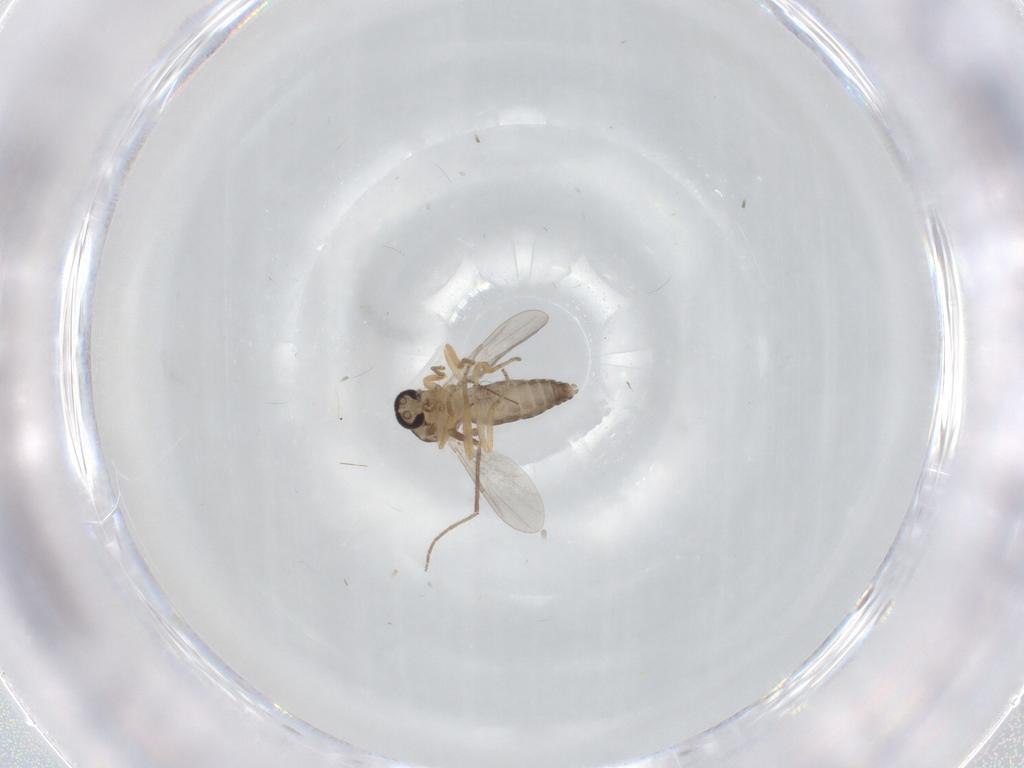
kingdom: Animalia
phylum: Arthropoda
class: Insecta
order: Diptera
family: Ceratopogonidae
